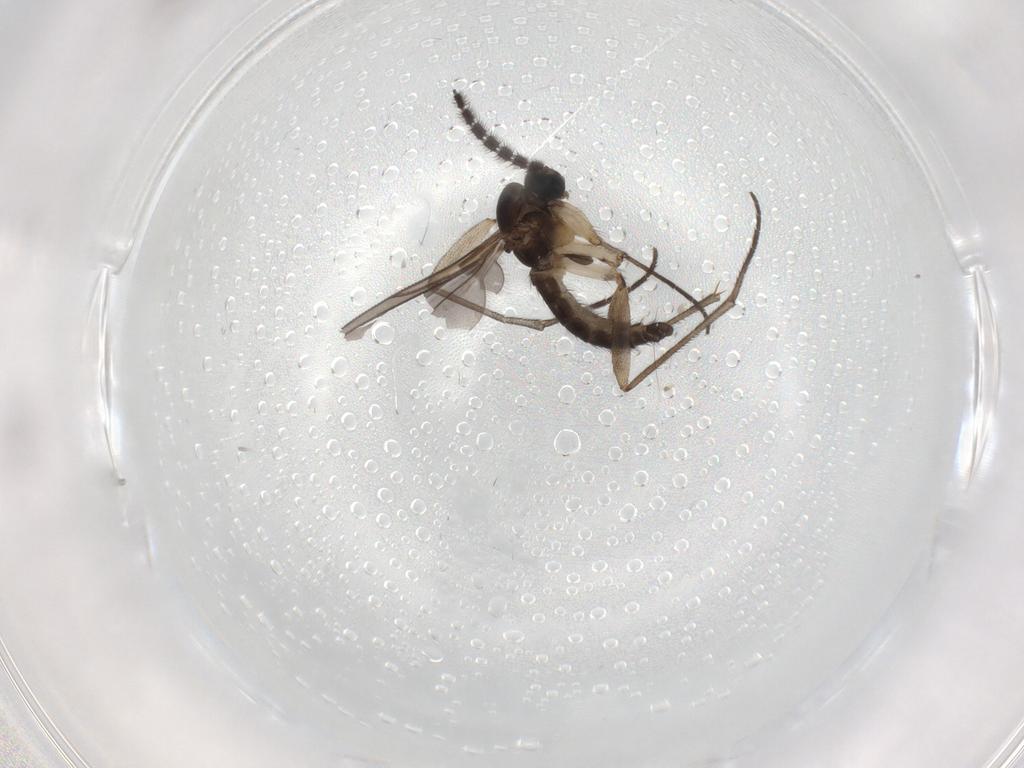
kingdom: Animalia
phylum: Arthropoda
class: Insecta
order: Diptera
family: Sciaridae
